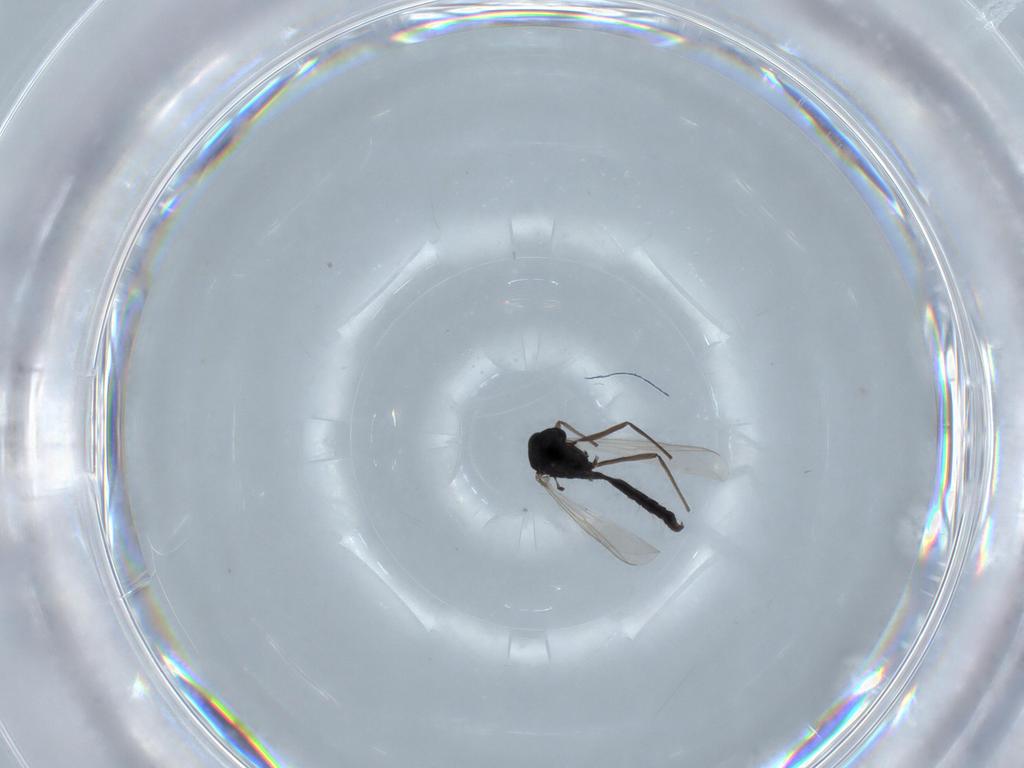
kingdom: Animalia
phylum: Arthropoda
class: Insecta
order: Diptera
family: Chironomidae
